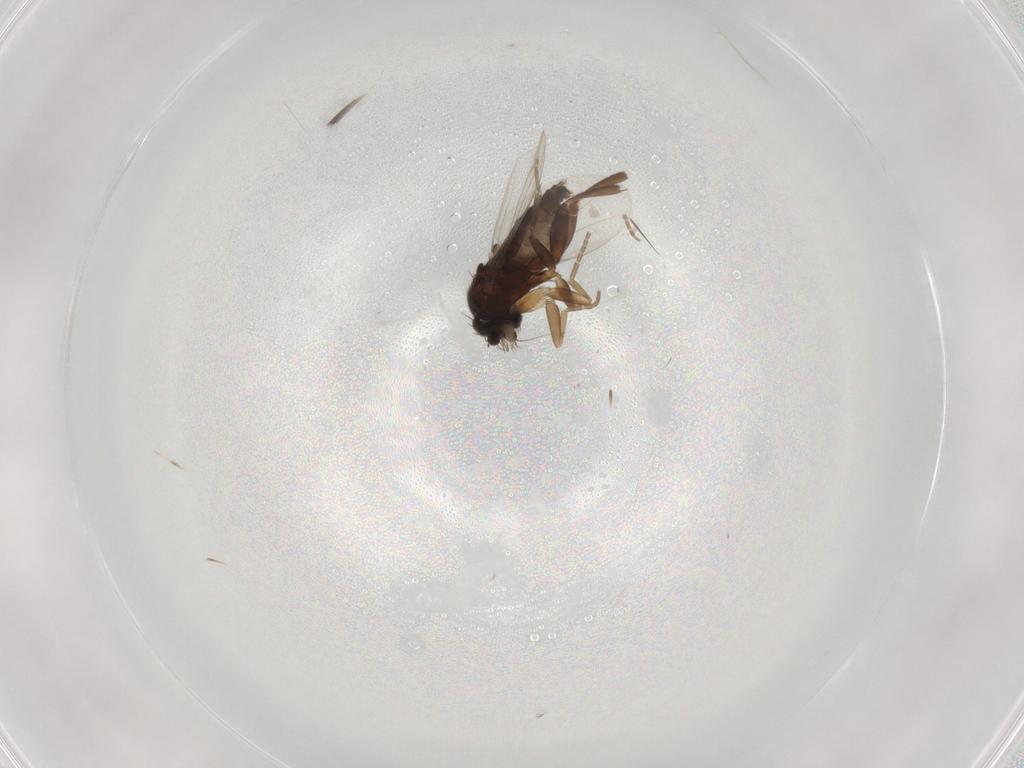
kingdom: Animalia
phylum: Arthropoda
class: Insecta
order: Diptera
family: Phoridae
